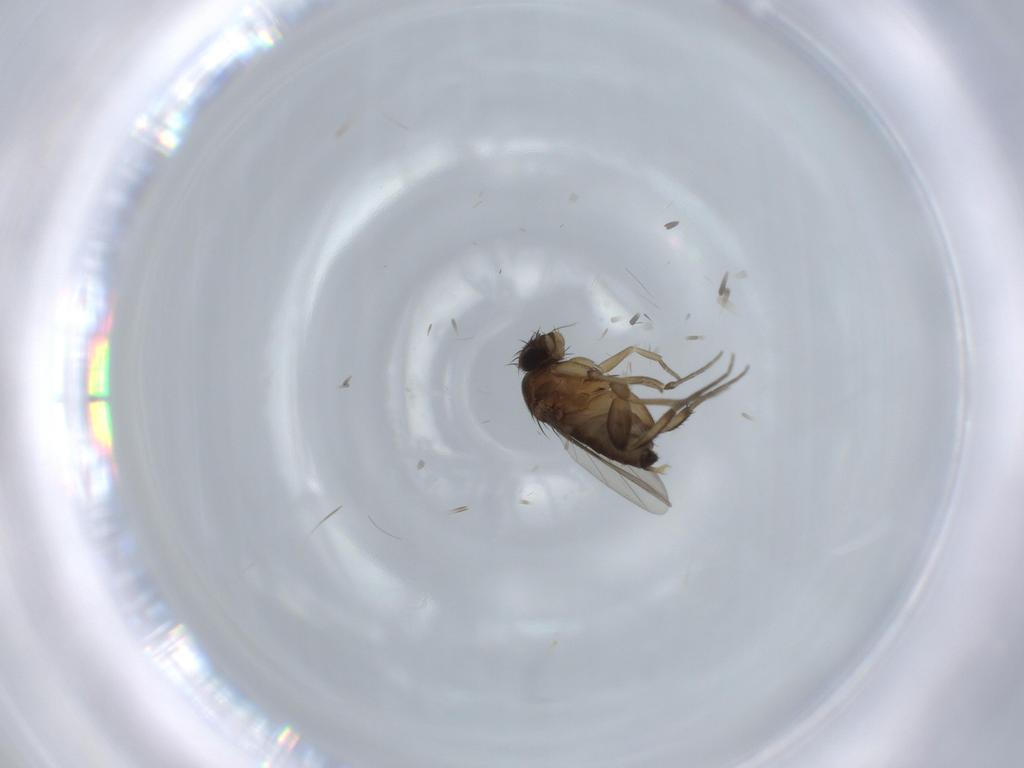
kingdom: Animalia
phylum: Arthropoda
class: Insecta
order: Diptera
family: Phoridae
